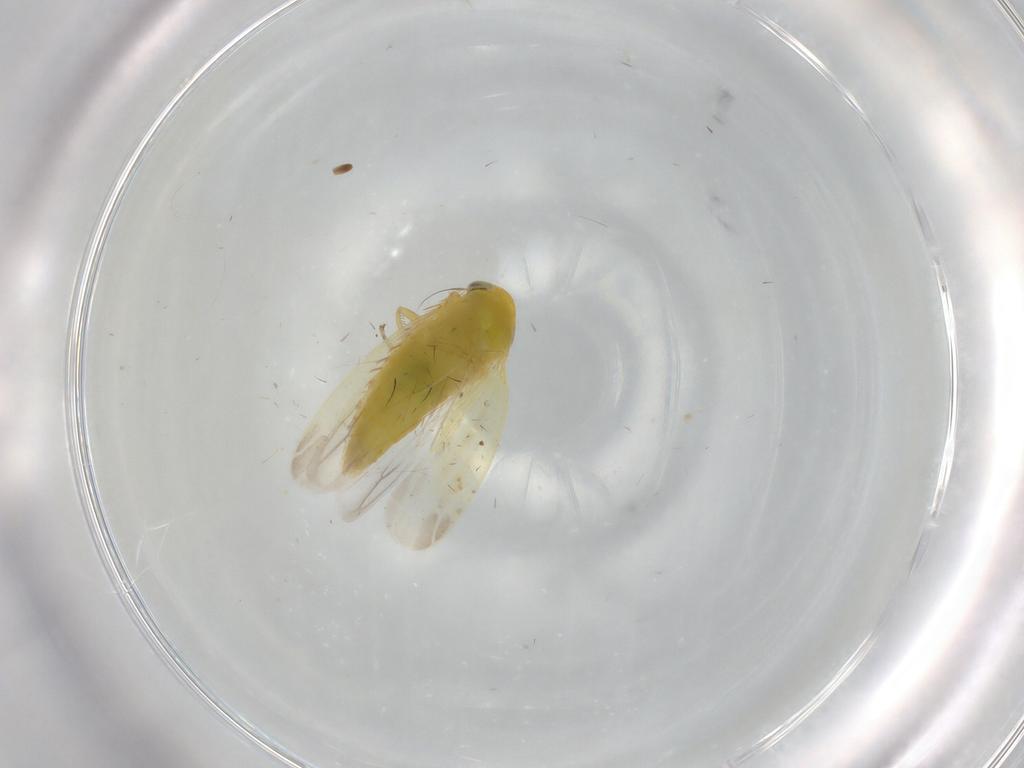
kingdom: Animalia
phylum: Arthropoda
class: Insecta
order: Hemiptera
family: Cicadellidae
